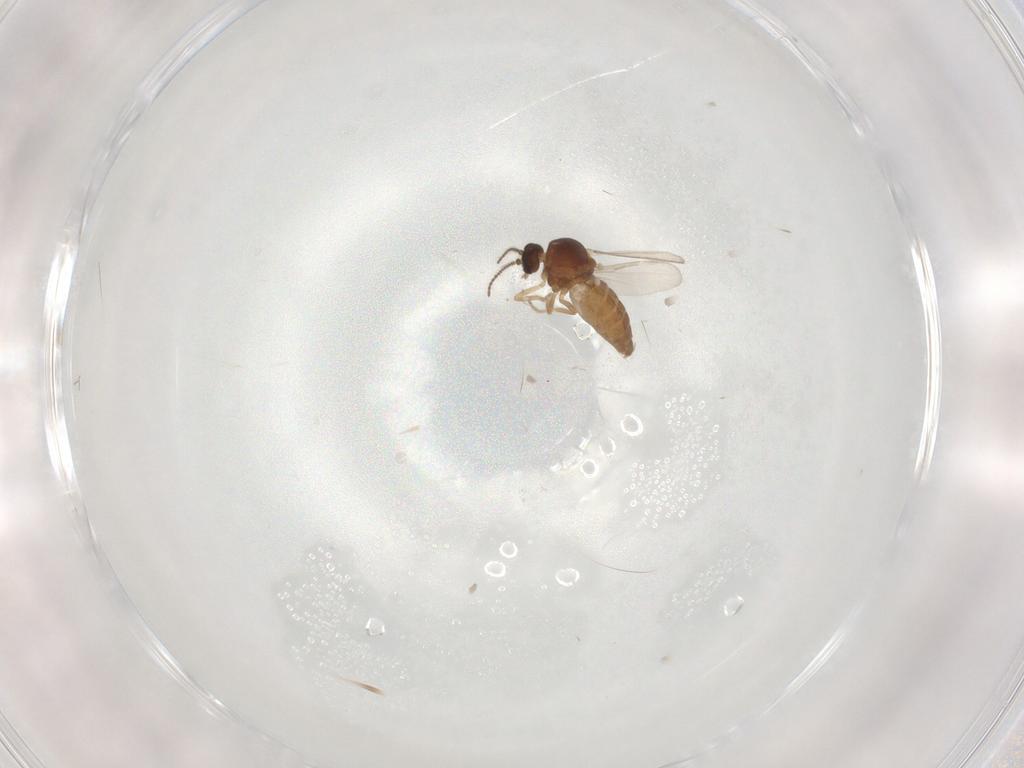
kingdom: Animalia
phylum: Arthropoda
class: Insecta
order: Diptera
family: Ceratopogonidae
